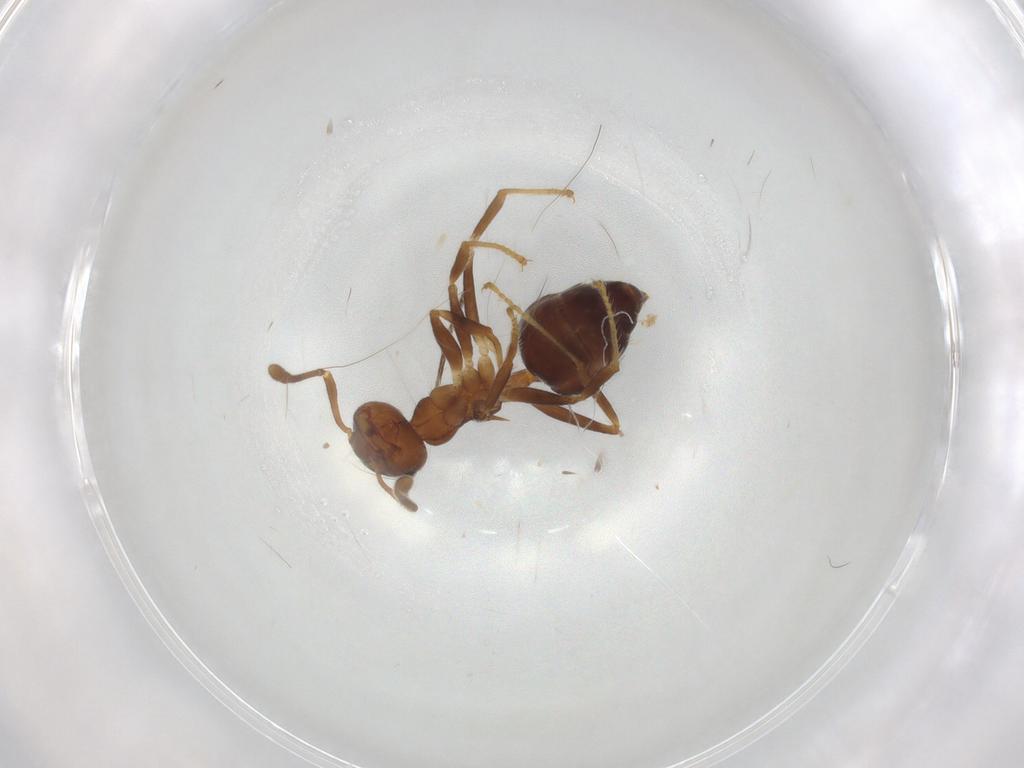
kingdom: Animalia
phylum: Arthropoda
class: Insecta
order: Hymenoptera
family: Formicidae
